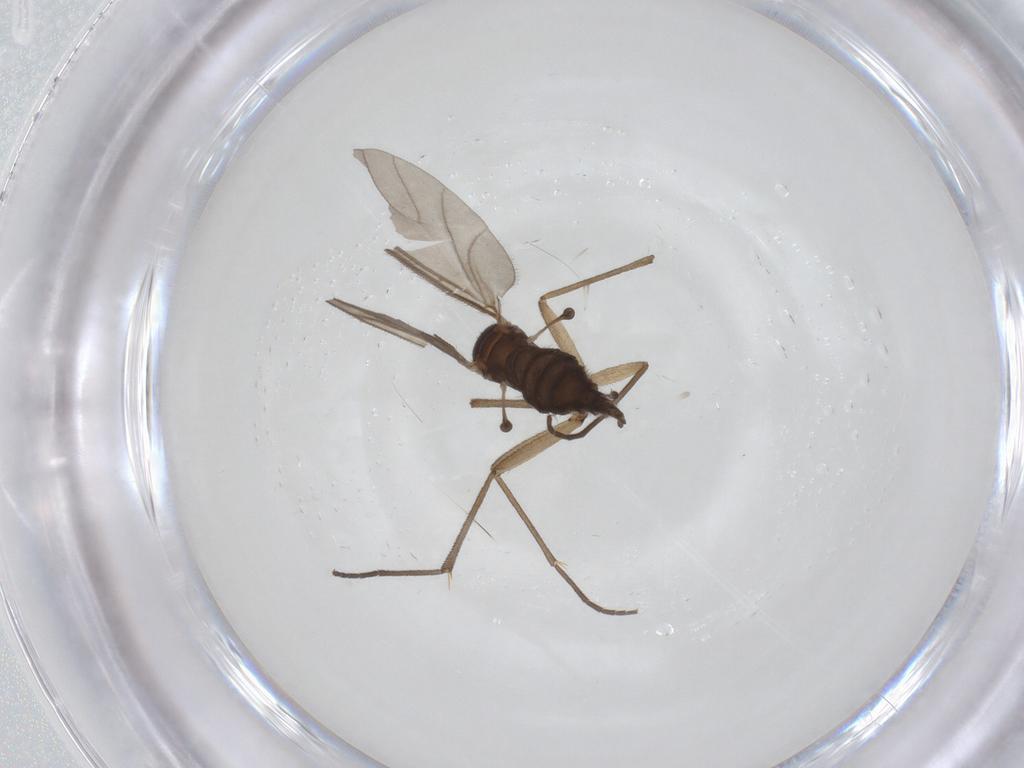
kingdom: Animalia
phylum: Arthropoda
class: Insecta
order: Diptera
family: Sciaridae
